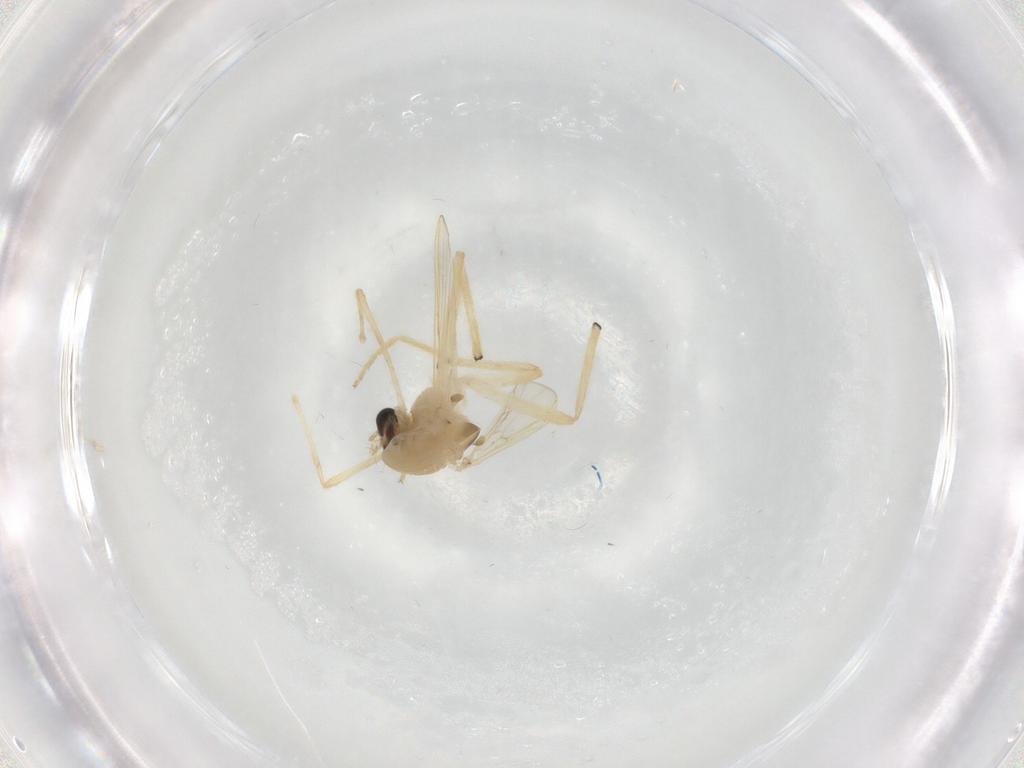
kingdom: Animalia
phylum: Arthropoda
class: Insecta
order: Diptera
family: Chironomidae
